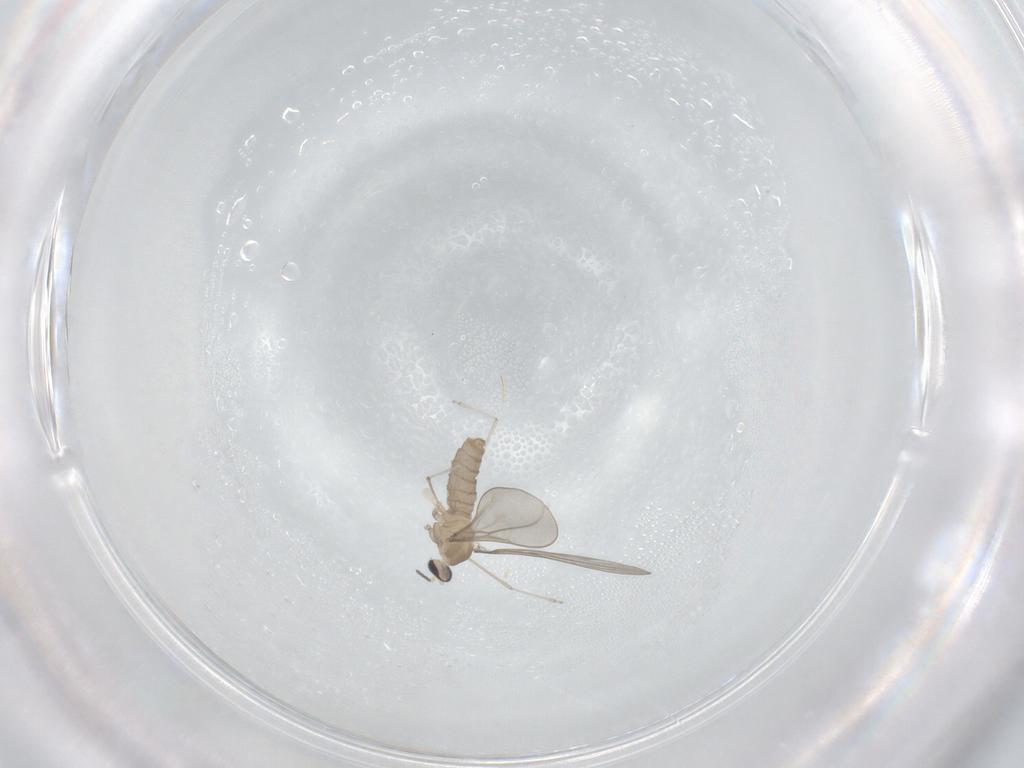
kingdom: Animalia
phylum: Arthropoda
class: Insecta
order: Diptera
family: Cecidomyiidae
